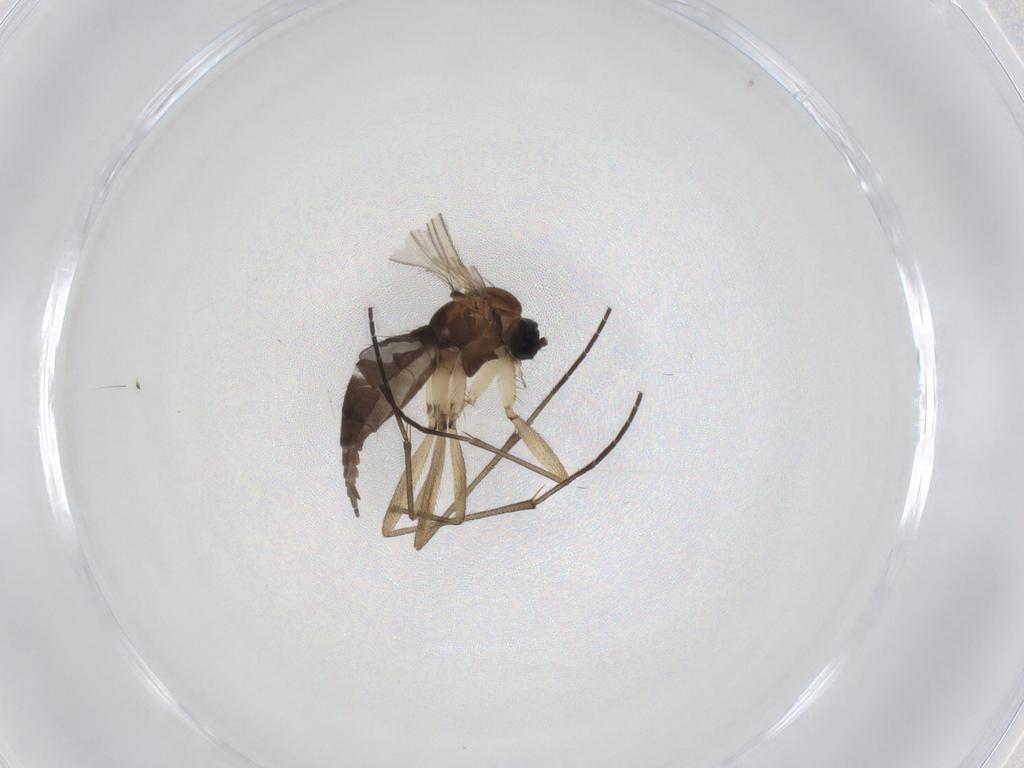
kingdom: Animalia
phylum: Arthropoda
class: Insecta
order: Diptera
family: Sciaridae
